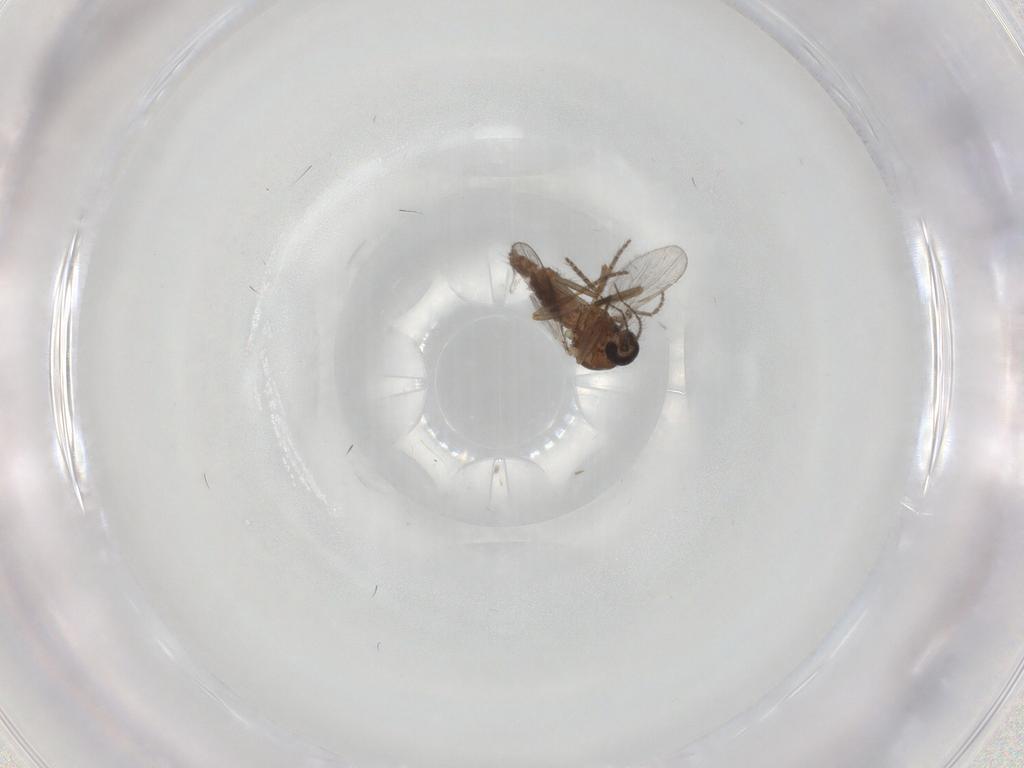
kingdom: Animalia
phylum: Arthropoda
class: Insecta
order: Diptera
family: Ceratopogonidae
